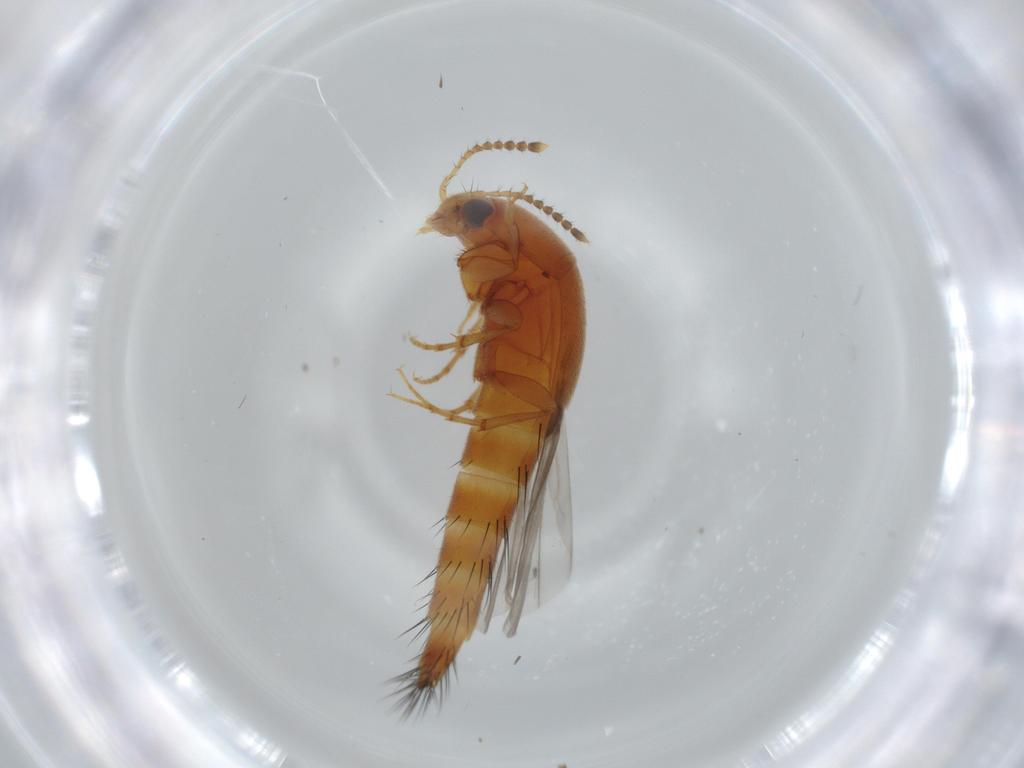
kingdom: Animalia
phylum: Arthropoda
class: Insecta
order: Coleoptera
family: Staphylinidae
